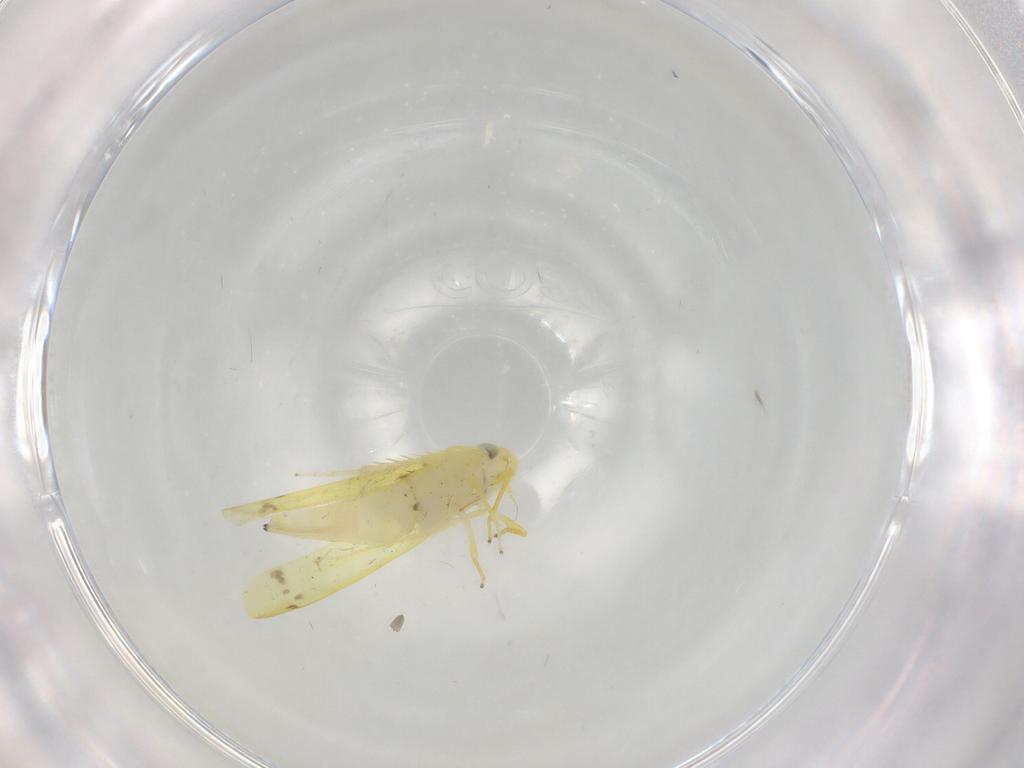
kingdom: Animalia
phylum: Arthropoda
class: Insecta
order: Hemiptera
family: Cicadellidae
